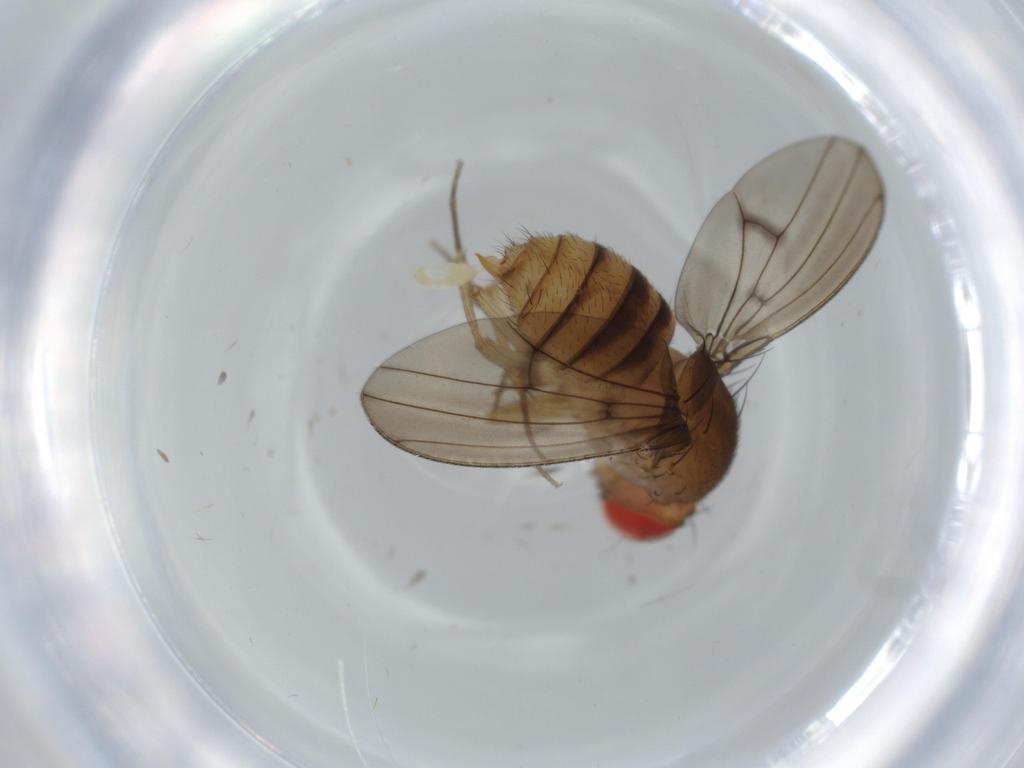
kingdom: Animalia
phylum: Arthropoda
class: Insecta
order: Diptera
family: Drosophilidae
